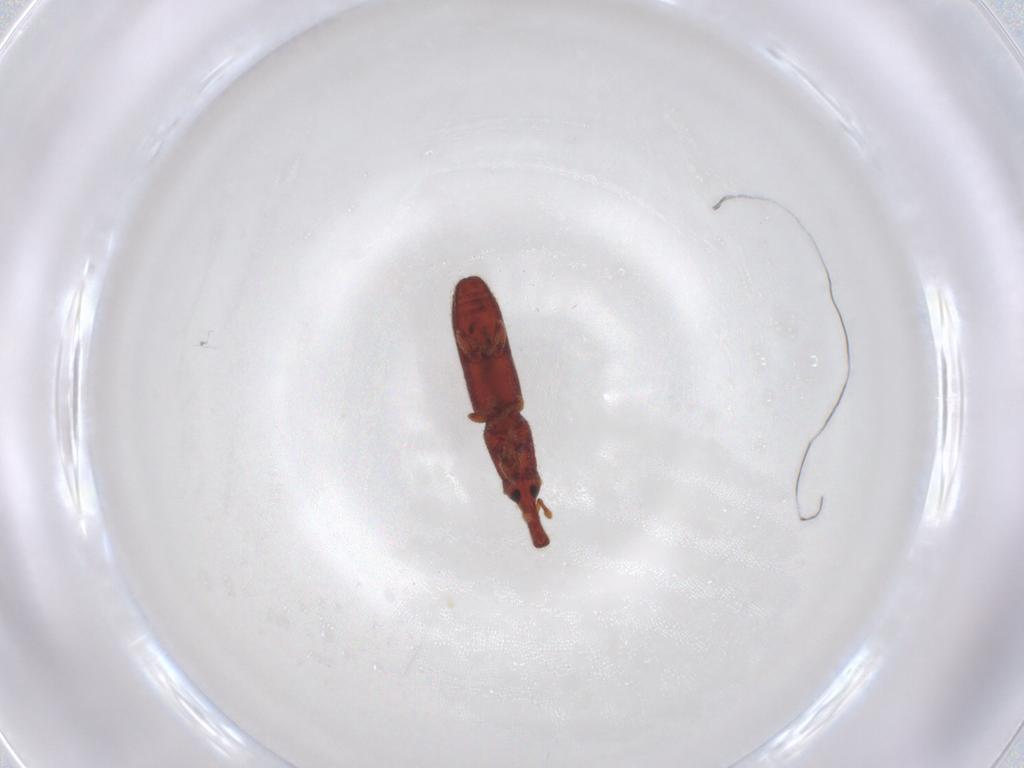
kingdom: Animalia
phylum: Arthropoda
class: Insecta
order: Coleoptera
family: Curculionidae
